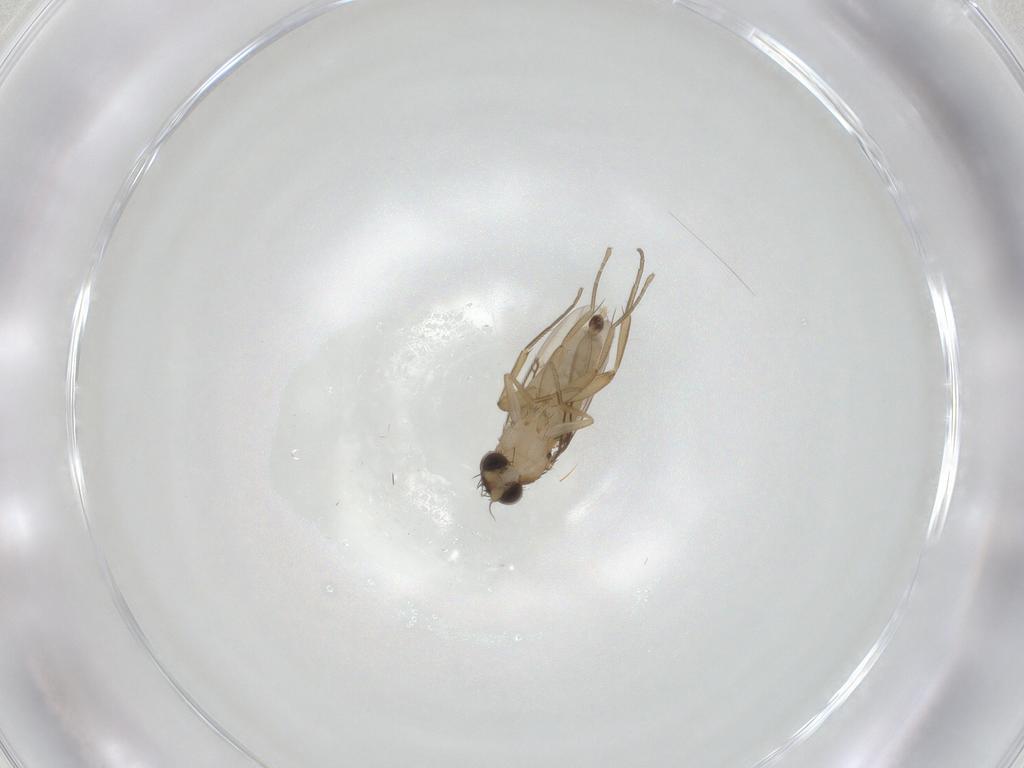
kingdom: Animalia
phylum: Arthropoda
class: Insecta
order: Diptera
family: Phoridae
